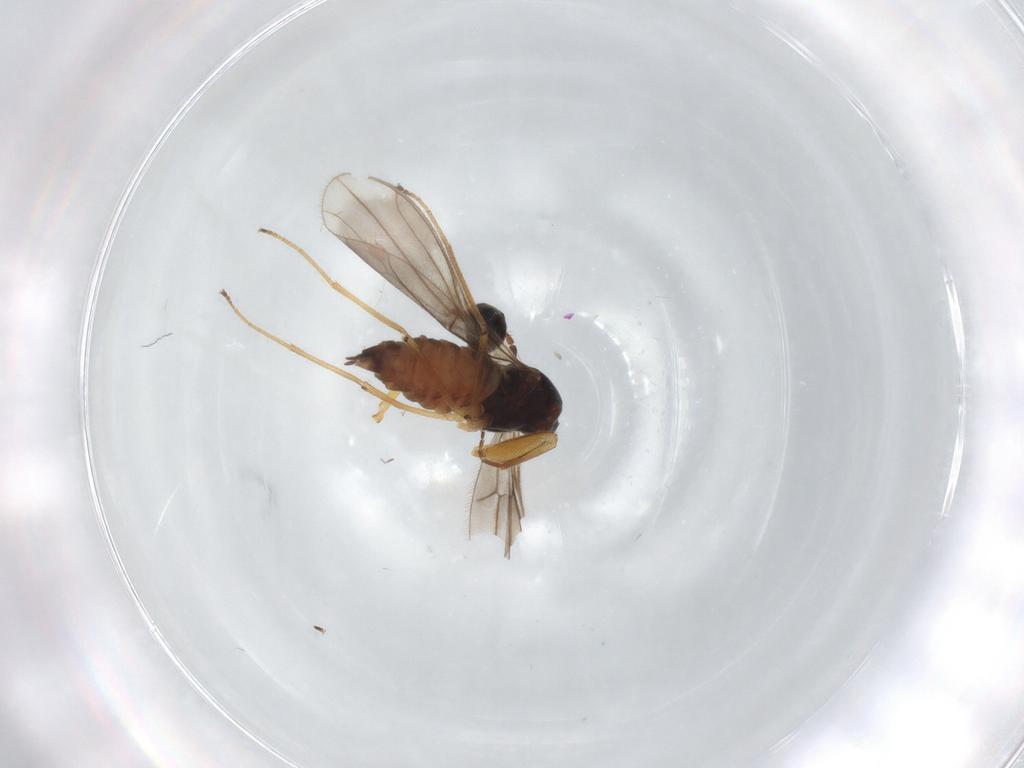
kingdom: Animalia
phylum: Arthropoda
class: Insecta
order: Diptera
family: Empididae
